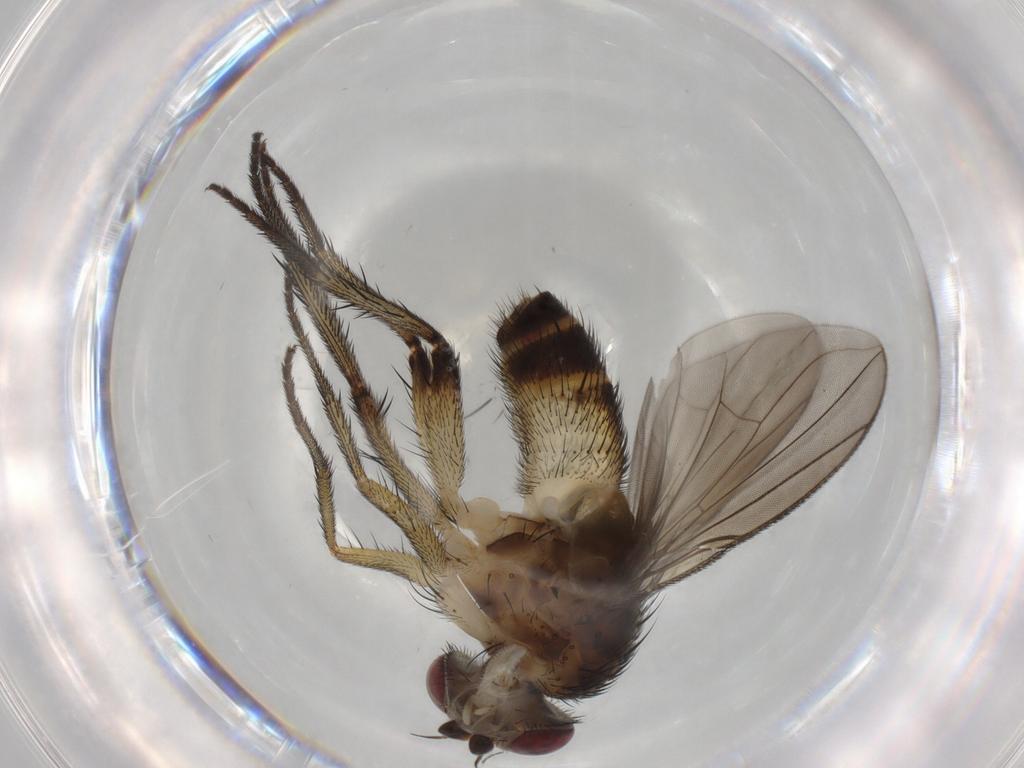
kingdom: Animalia
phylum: Arthropoda
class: Insecta
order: Diptera
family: Tachinidae
